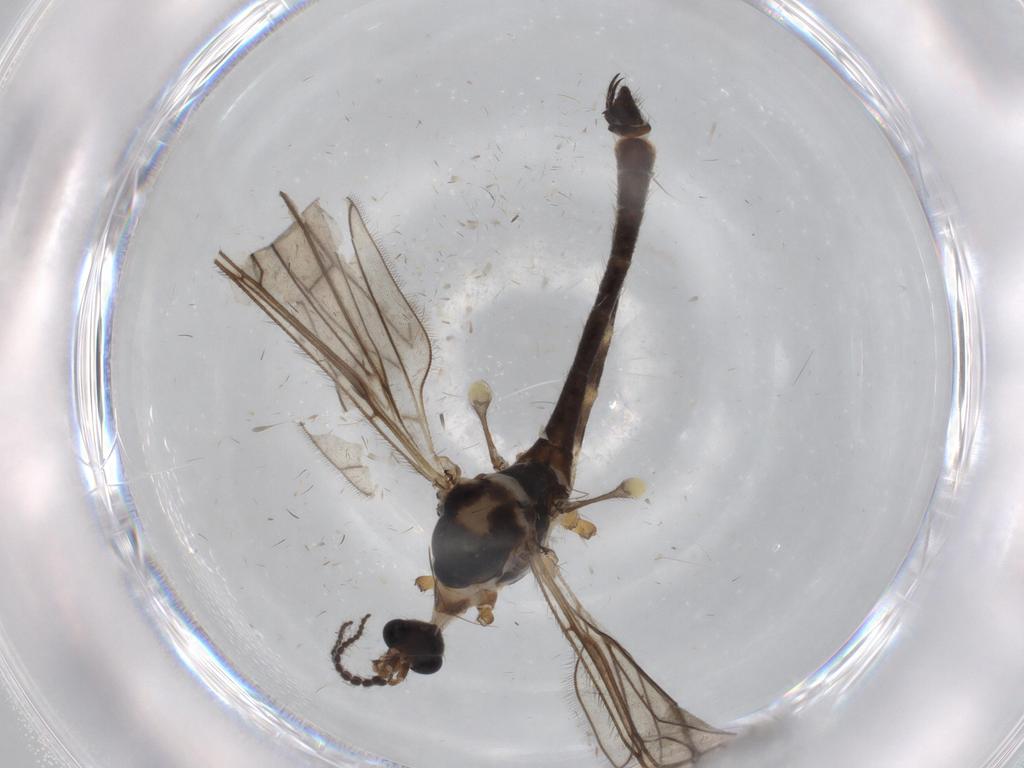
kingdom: Animalia
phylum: Arthropoda
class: Insecta
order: Diptera
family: Limoniidae
